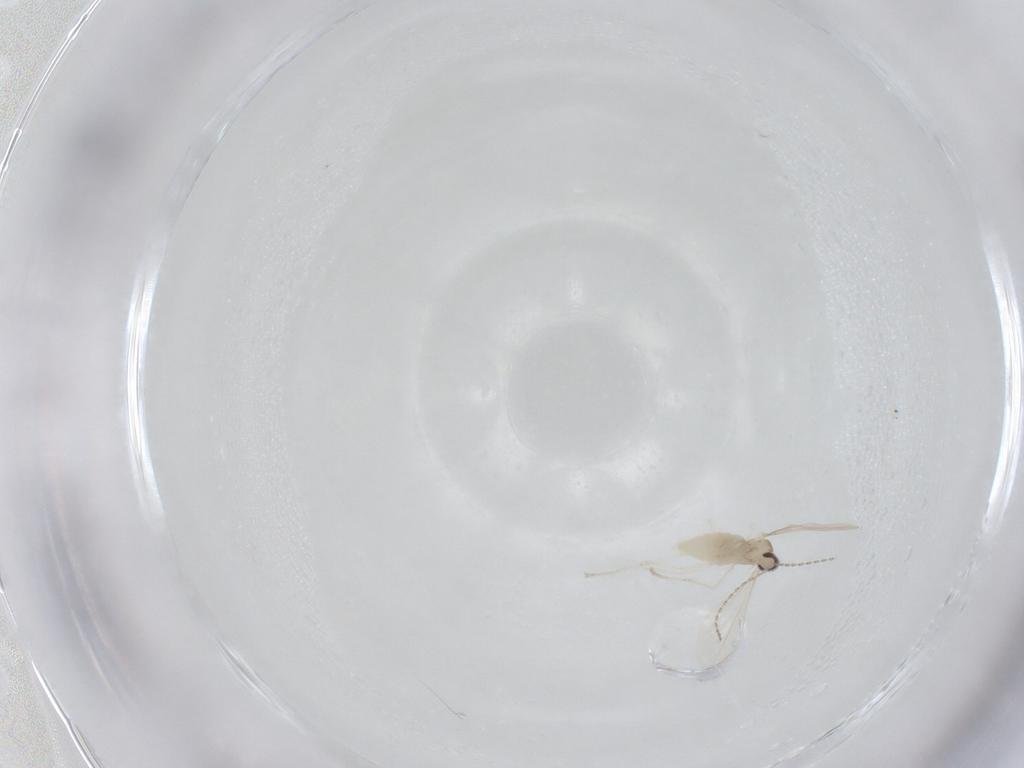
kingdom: Animalia
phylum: Arthropoda
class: Insecta
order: Diptera
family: Cecidomyiidae
